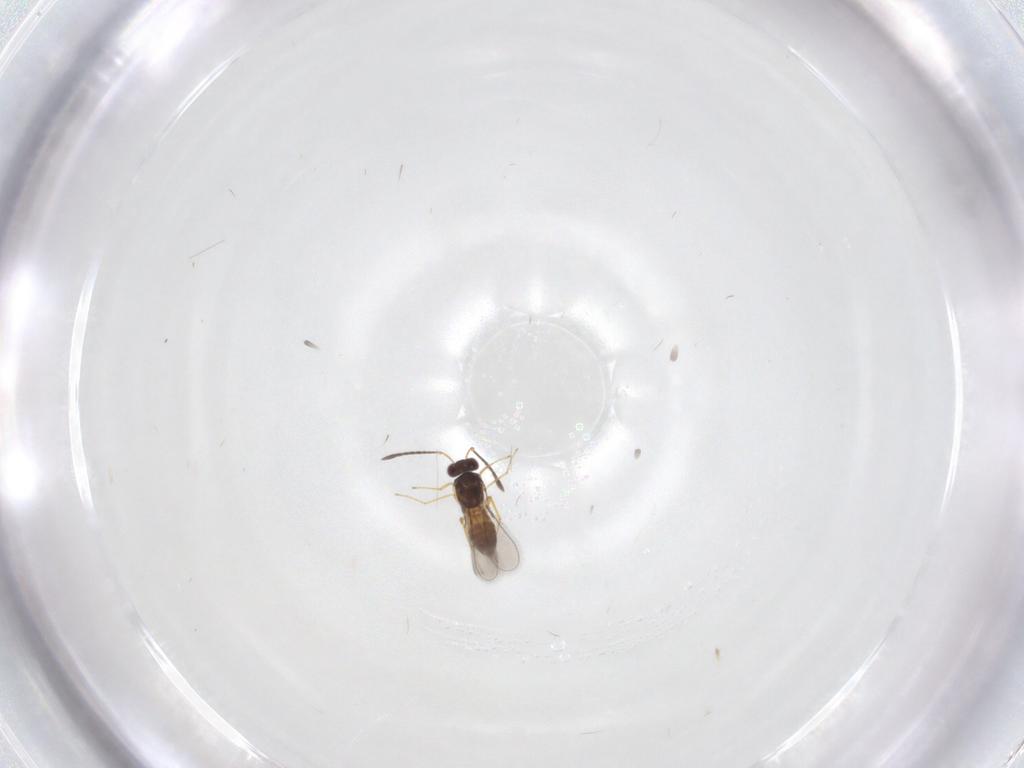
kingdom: Animalia
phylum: Arthropoda
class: Insecta
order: Hymenoptera
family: Mymaridae
